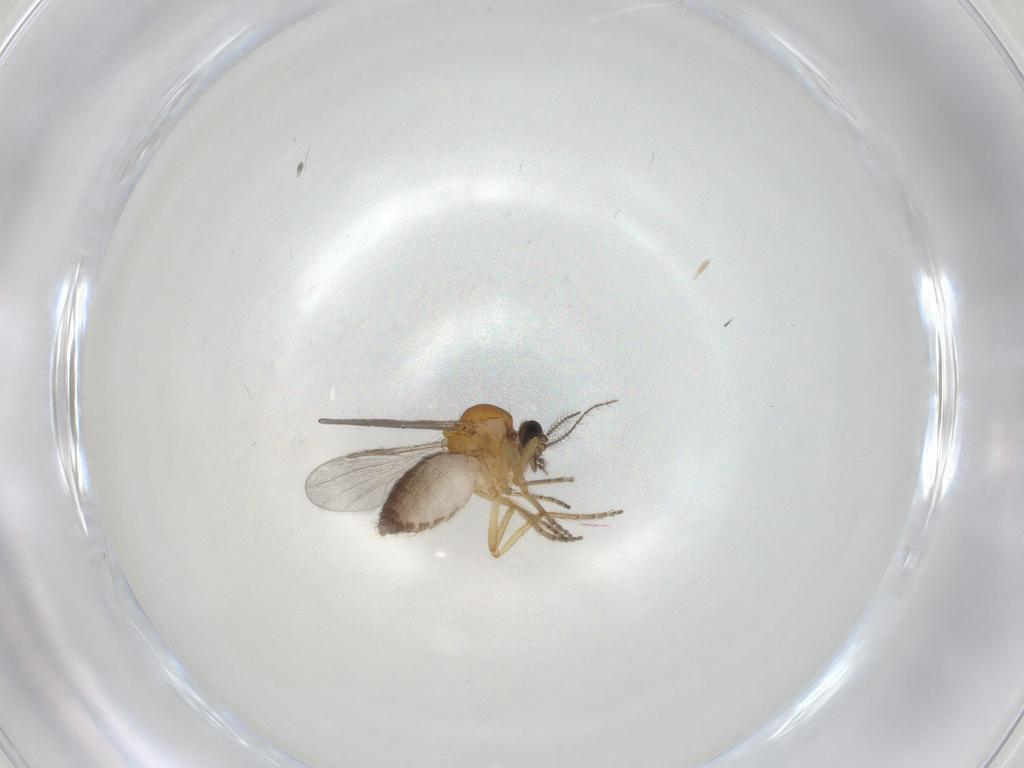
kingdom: Animalia
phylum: Arthropoda
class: Insecta
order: Diptera
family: Ceratopogonidae
